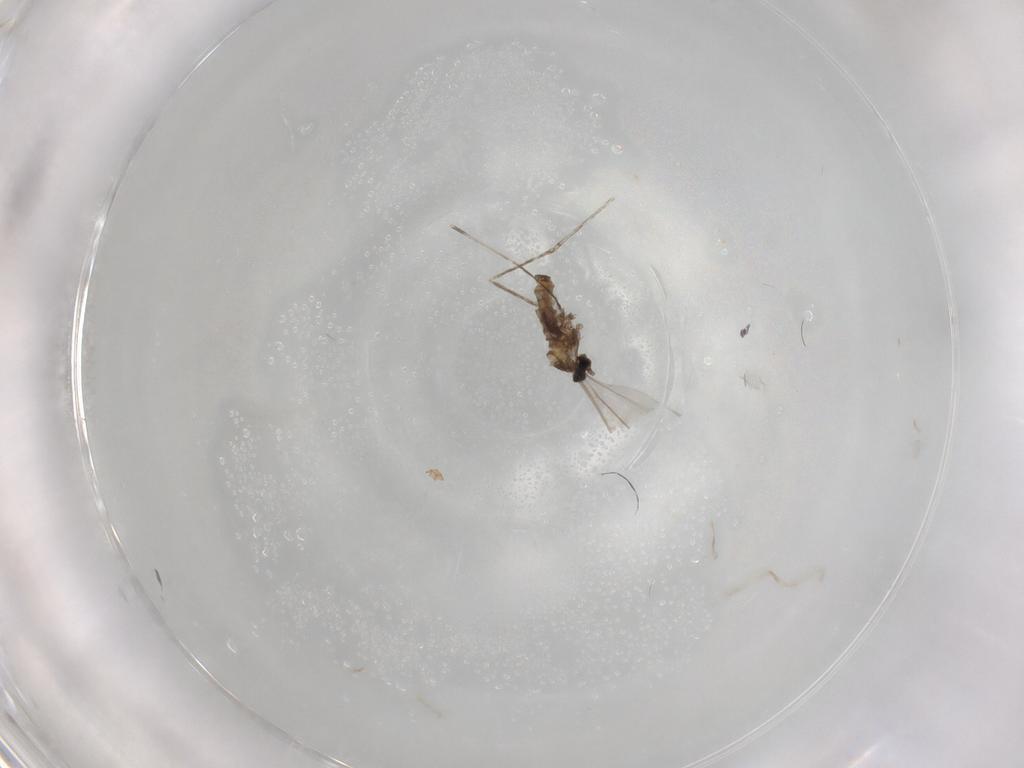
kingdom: Animalia
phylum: Arthropoda
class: Insecta
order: Diptera
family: Cecidomyiidae
